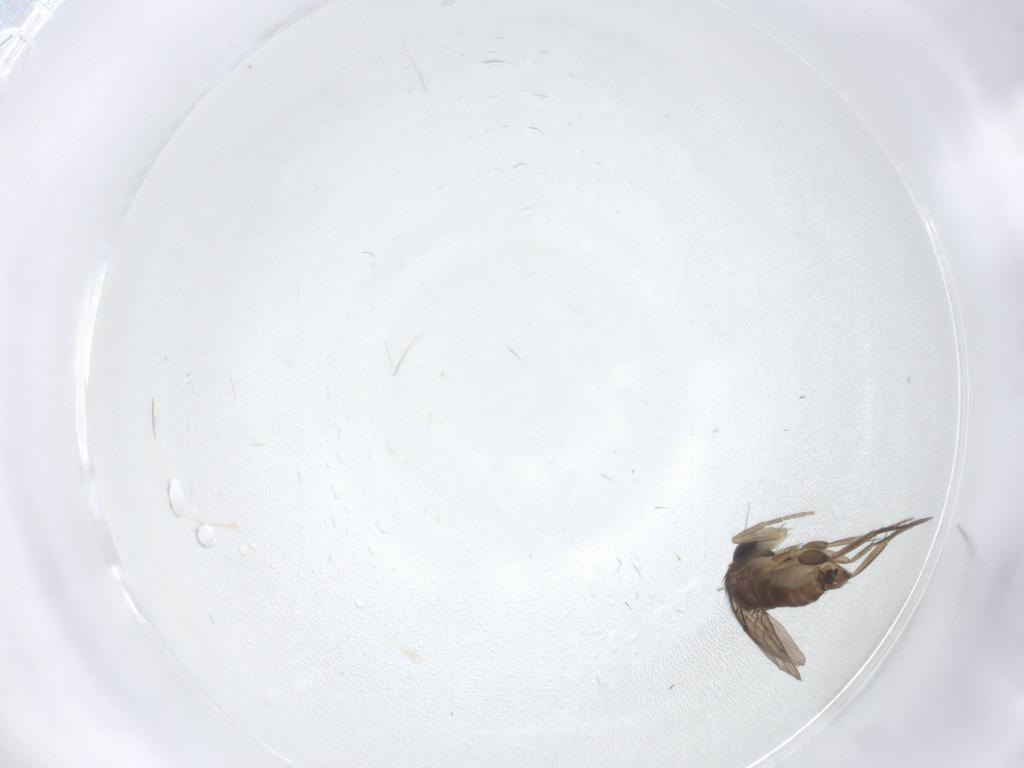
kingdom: Animalia
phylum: Arthropoda
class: Insecta
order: Diptera
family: Phoridae
